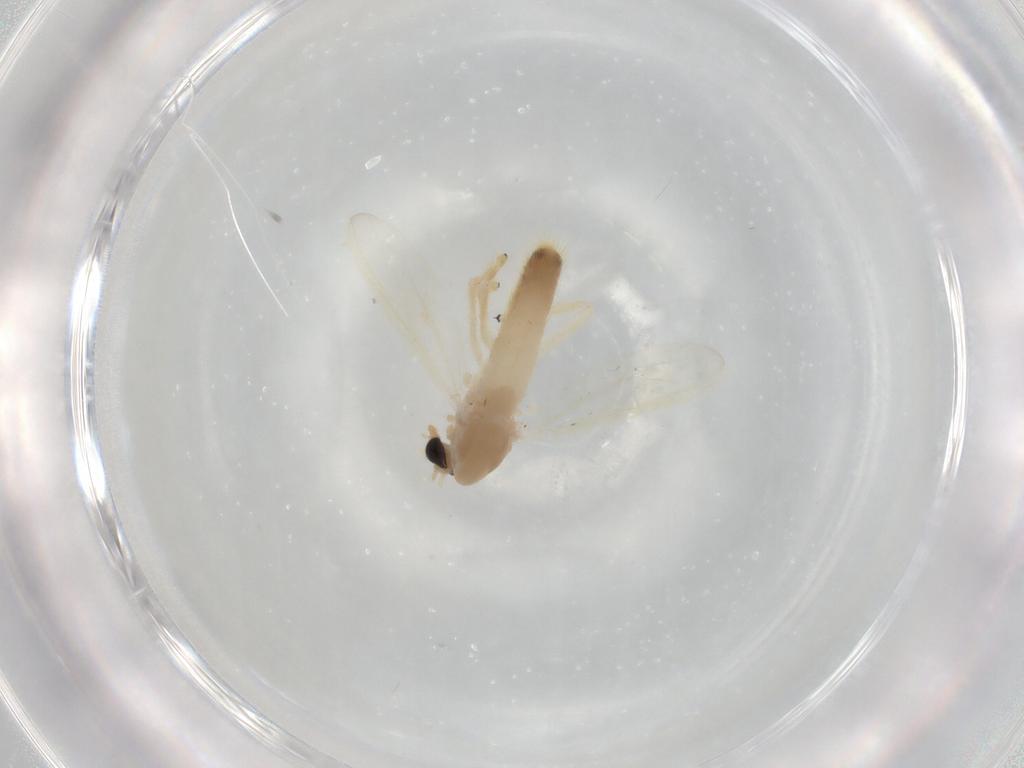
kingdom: Animalia
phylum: Arthropoda
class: Insecta
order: Diptera
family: Chironomidae
